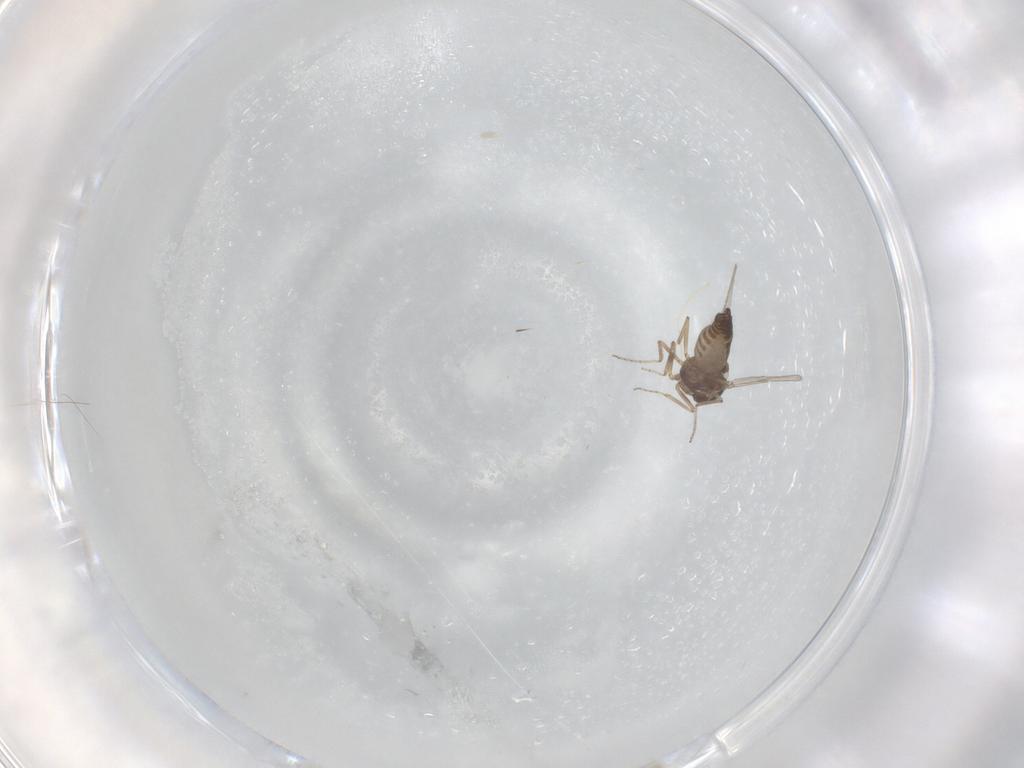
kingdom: Animalia
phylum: Arthropoda
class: Insecta
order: Diptera
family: Ceratopogonidae
